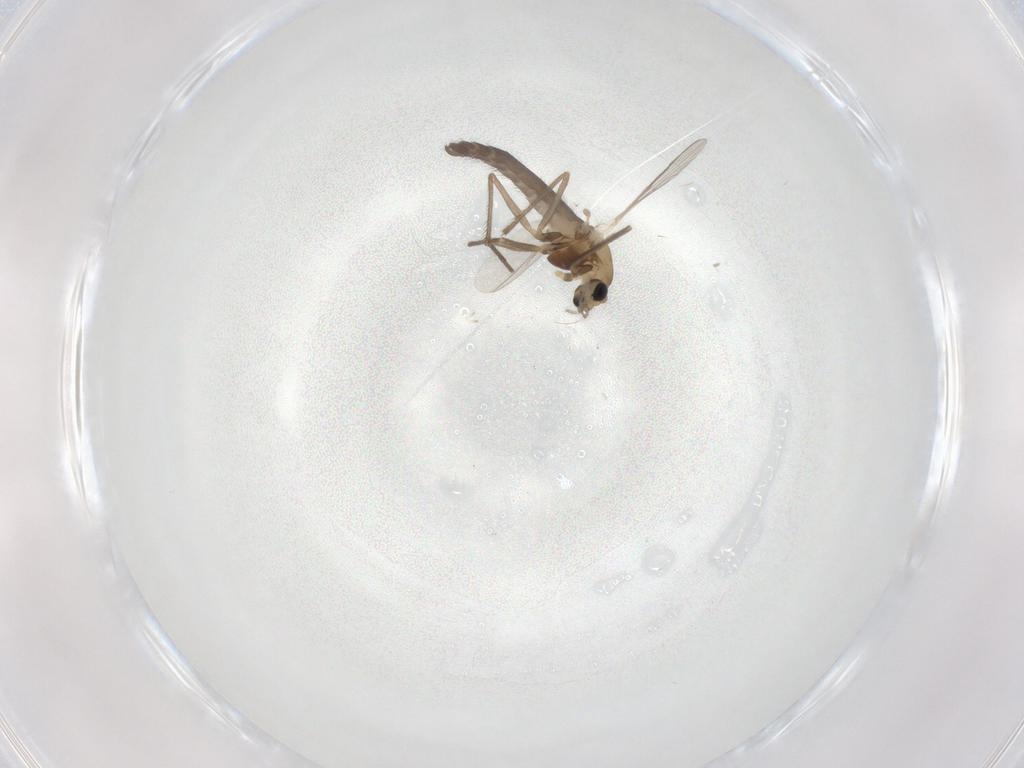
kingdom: Animalia
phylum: Arthropoda
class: Insecta
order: Diptera
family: Chironomidae
